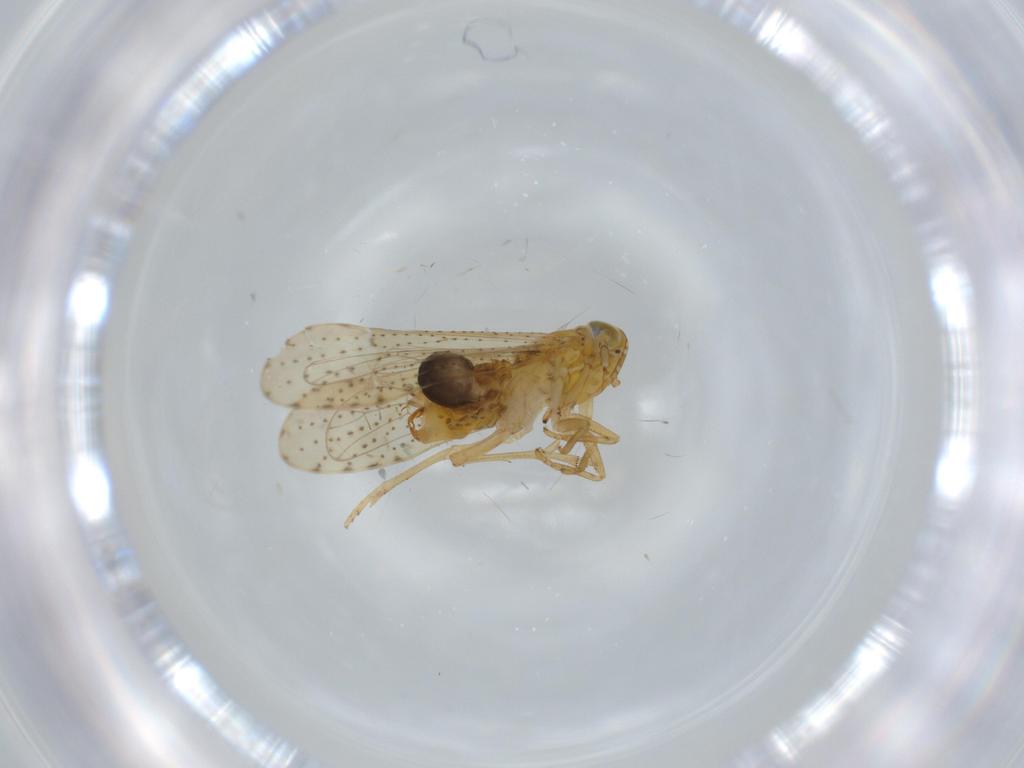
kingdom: Animalia
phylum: Arthropoda
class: Insecta
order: Hemiptera
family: Delphacidae
